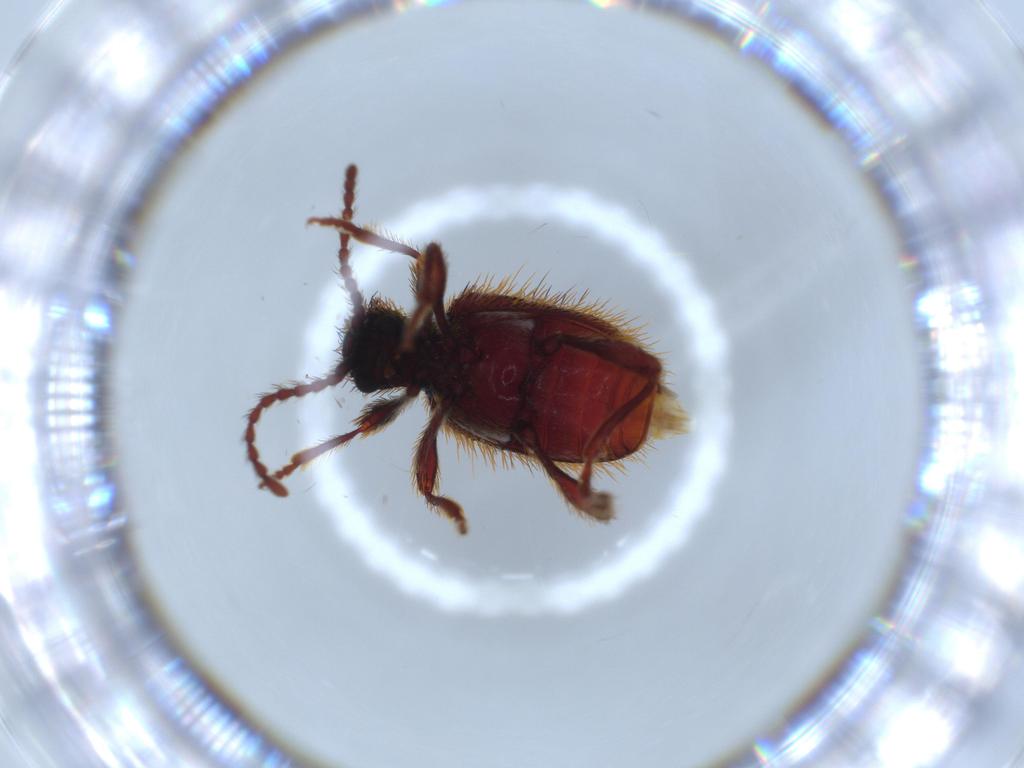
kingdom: Animalia
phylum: Arthropoda
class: Insecta
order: Coleoptera
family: Ptinidae
